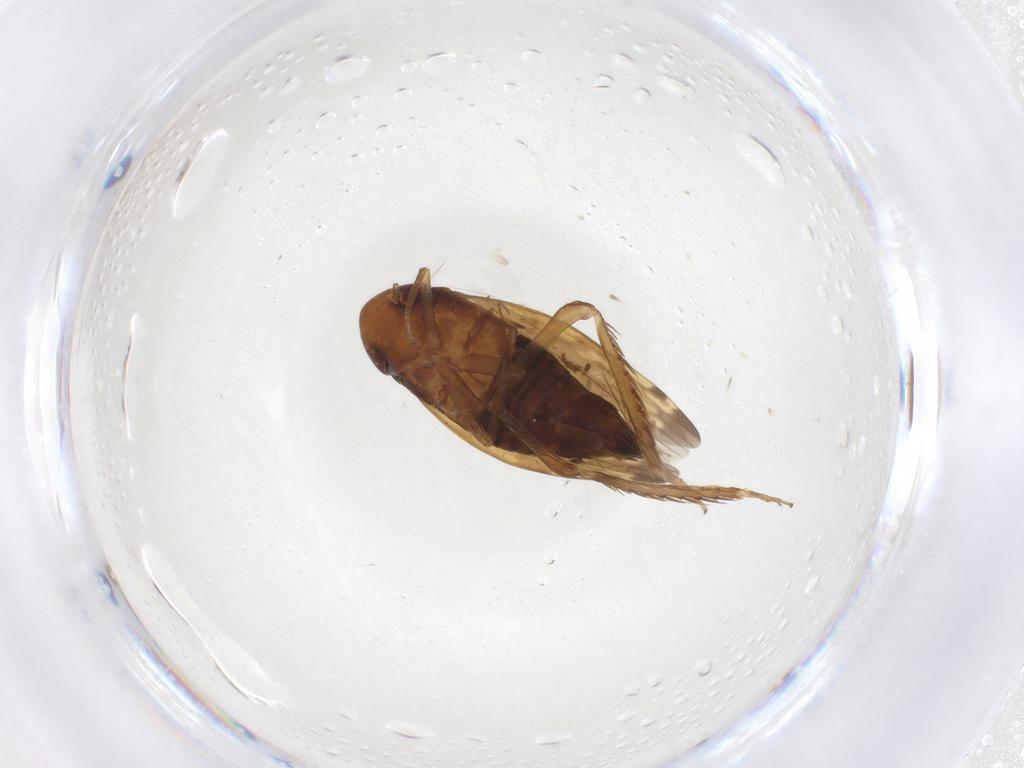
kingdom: Animalia
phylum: Arthropoda
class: Insecta
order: Hemiptera
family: Cicadellidae
